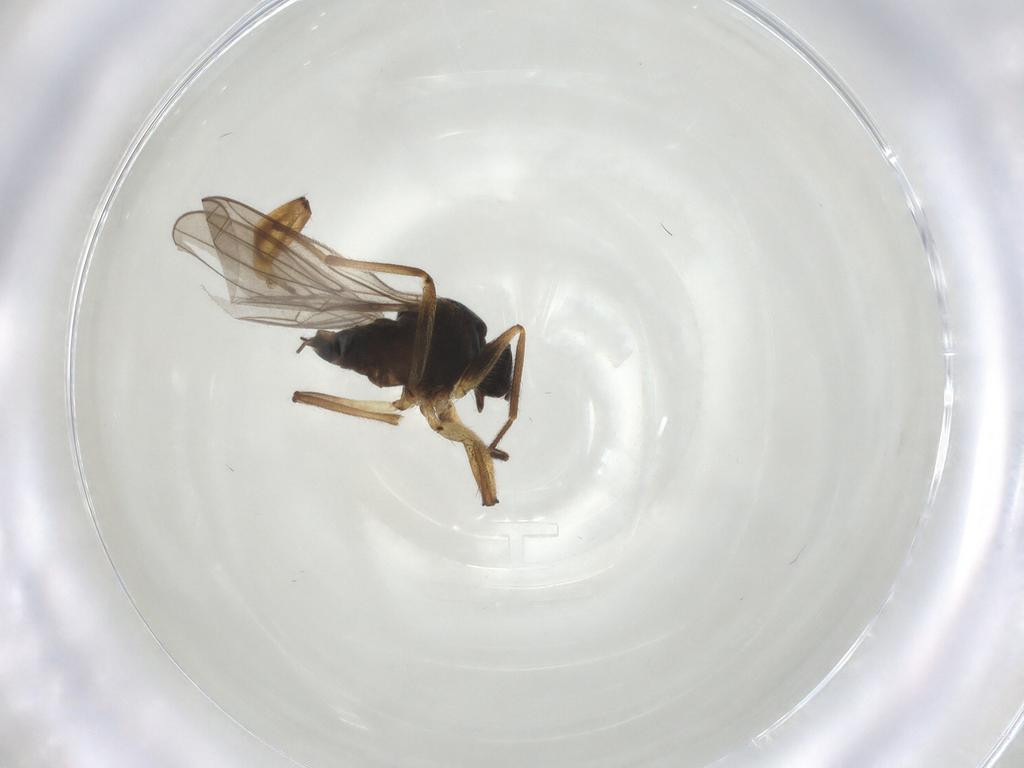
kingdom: Animalia
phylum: Arthropoda
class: Insecta
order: Diptera
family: Hybotidae
